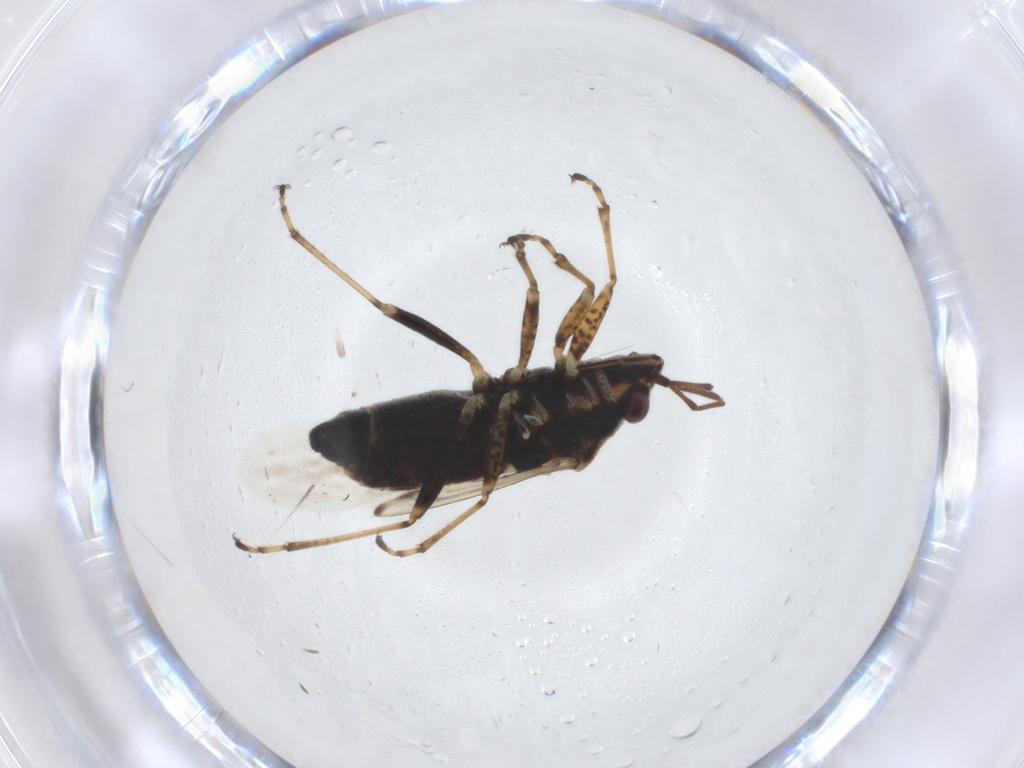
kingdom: Animalia
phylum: Arthropoda
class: Insecta
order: Hemiptera
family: Lygaeidae
